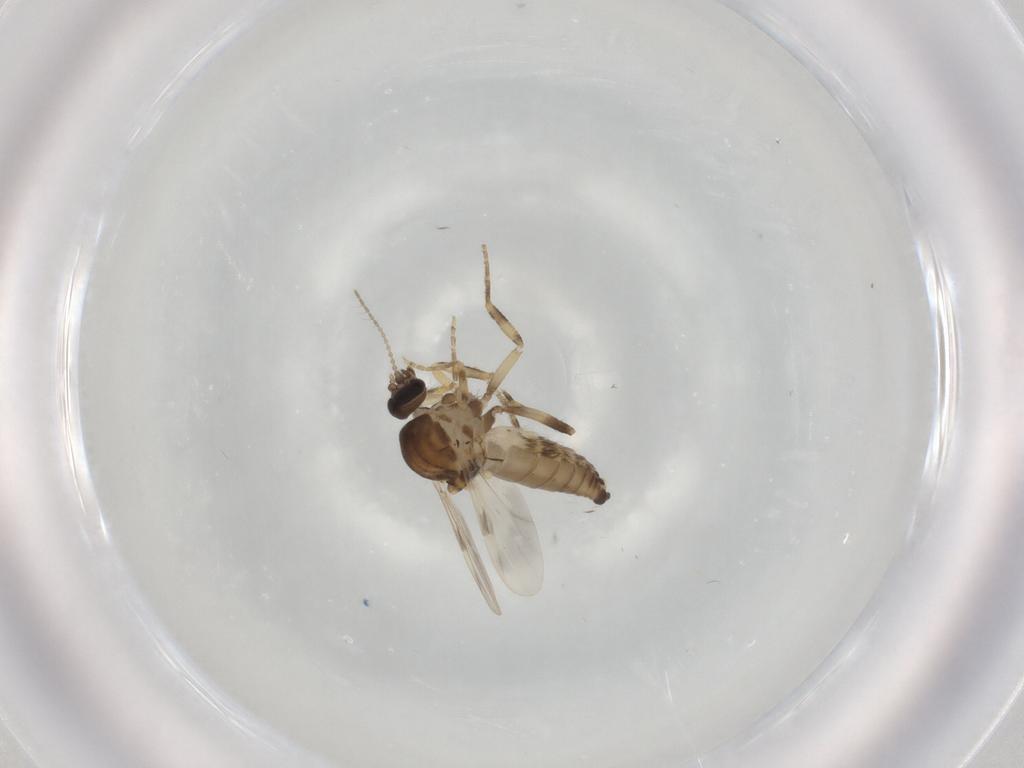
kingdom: Animalia
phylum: Arthropoda
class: Insecta
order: Diptera
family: Ceratopogonidae
